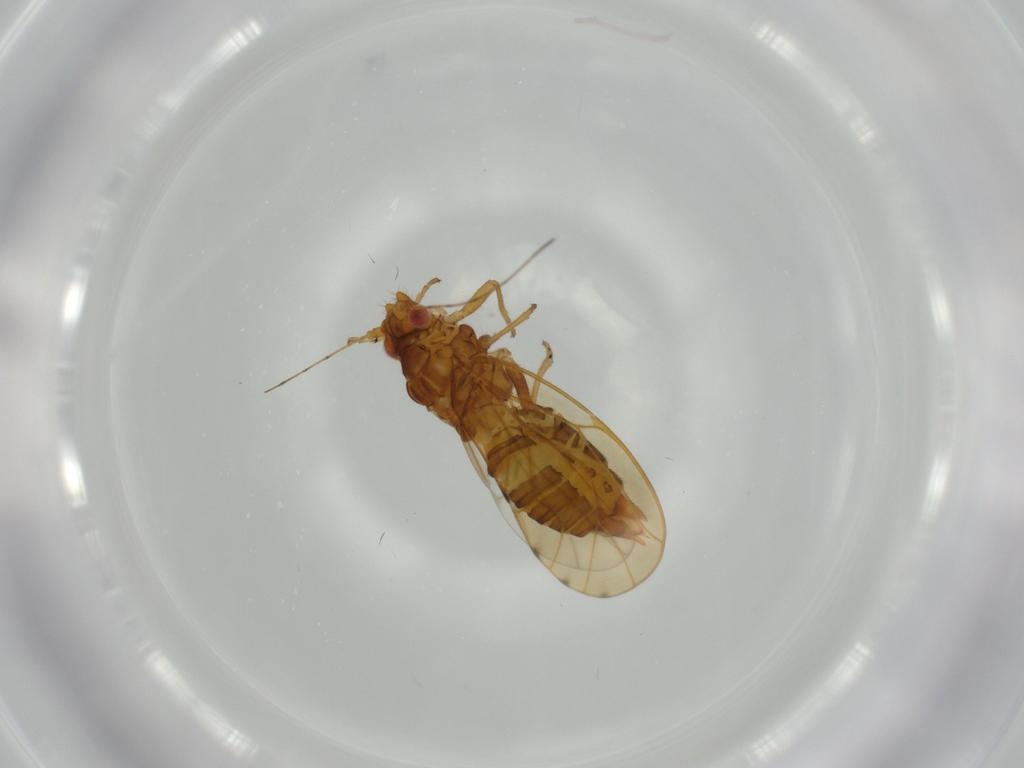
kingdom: Animalia
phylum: Arthropoda
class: Insecta
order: Hemiptera
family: Psylloidea_incertae_sedis
